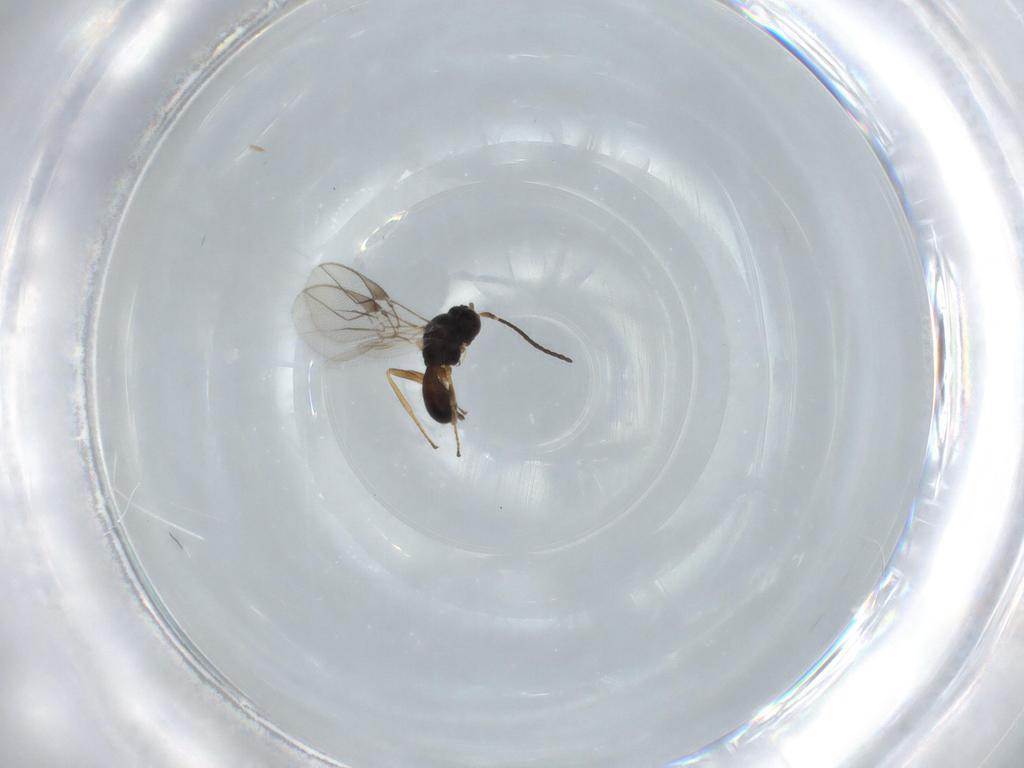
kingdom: Animalia
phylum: Arthropoda
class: Insecta
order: Hymenoptera
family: Braconidae
